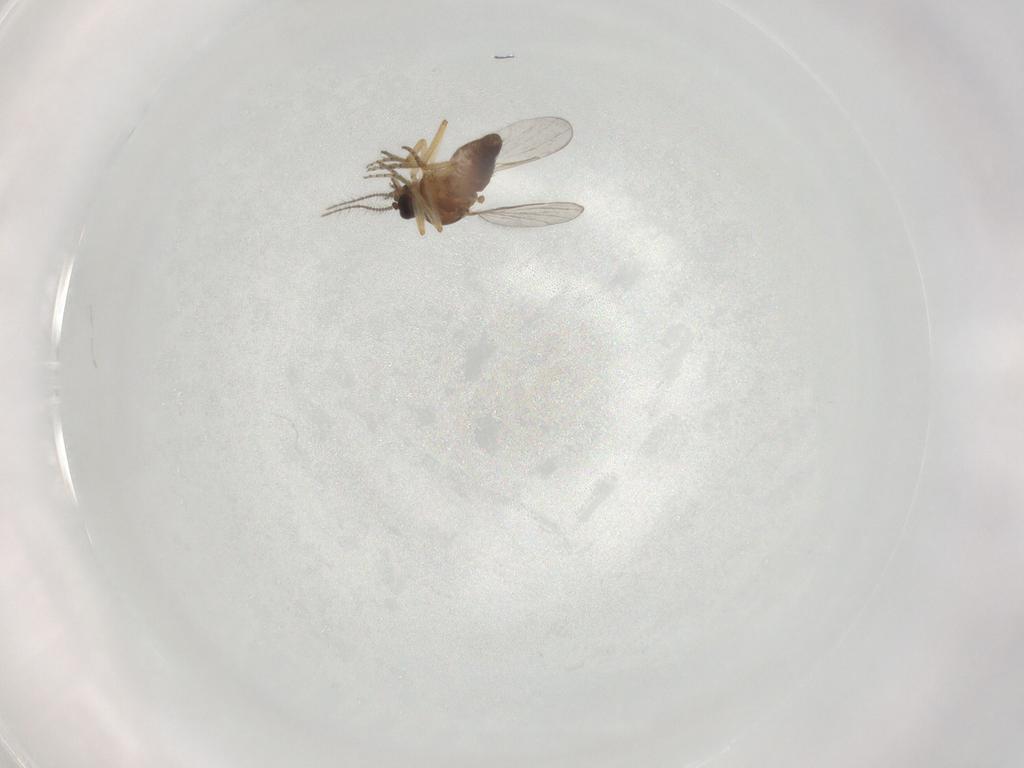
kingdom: Animalia
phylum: Arthropoda
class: Insecta
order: Diptera
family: Ceratopogonidae
